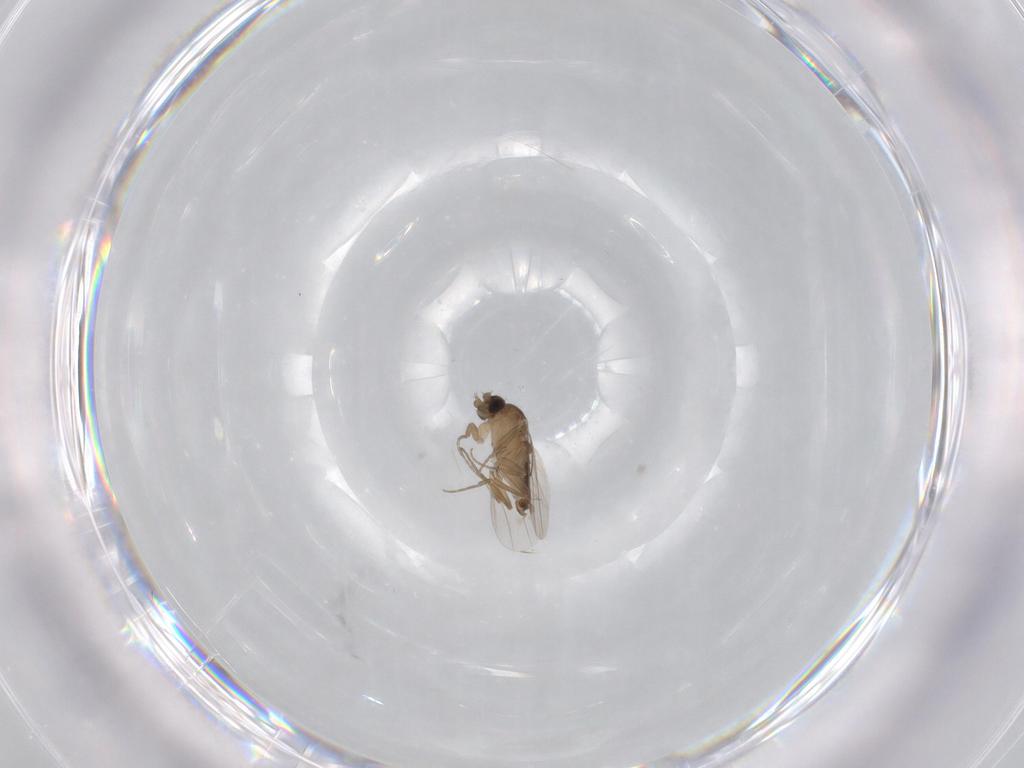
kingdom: Animalia
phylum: Arthropoda
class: Insecta
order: Diptera
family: Phoridae
